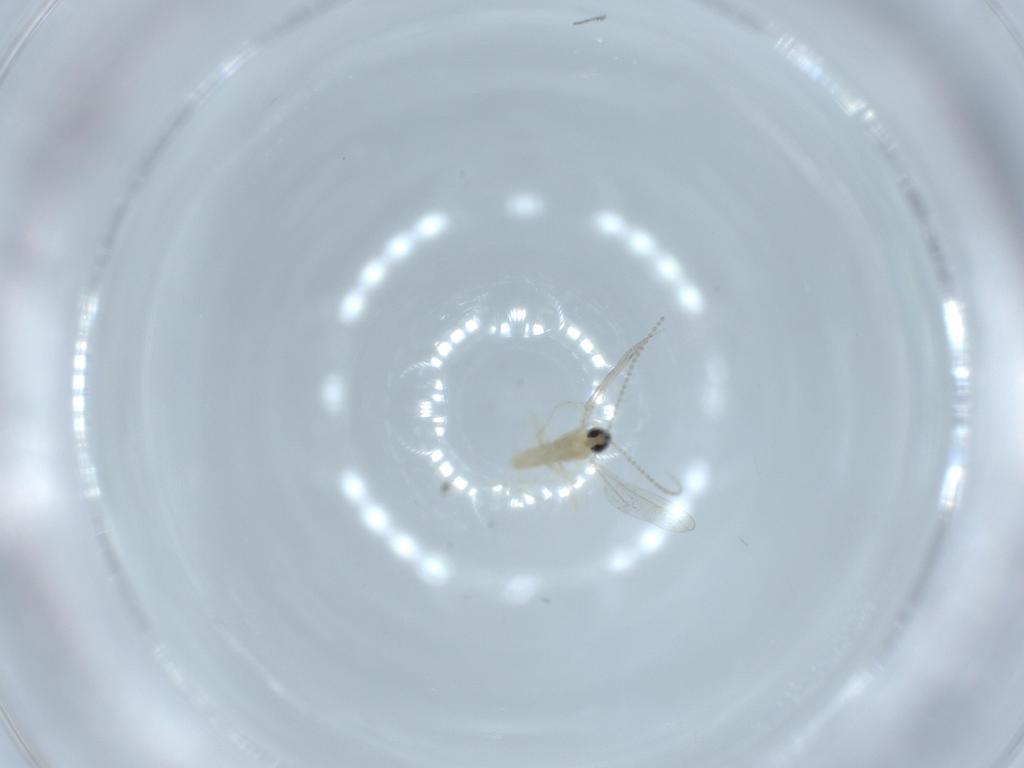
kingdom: Animalia
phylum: Arthropoda
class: Insecta
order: Diptera
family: Cecidomyiidae
